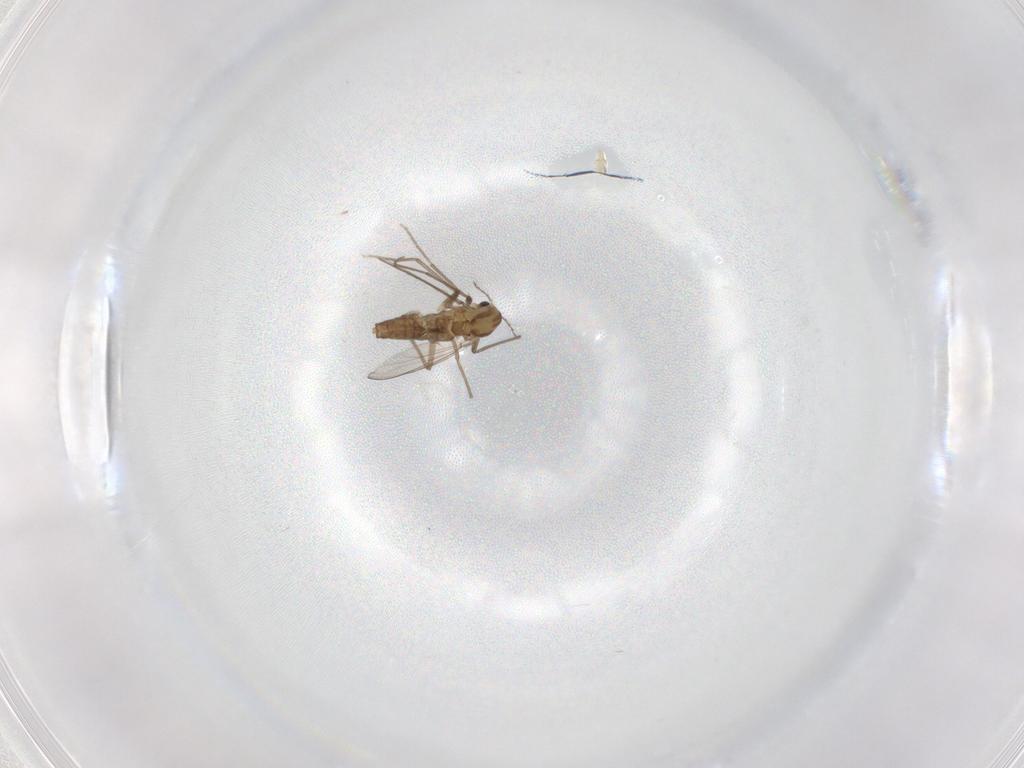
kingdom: Animalia
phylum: Arthropoda
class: Insecta
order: Diptera
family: Chironomidae
